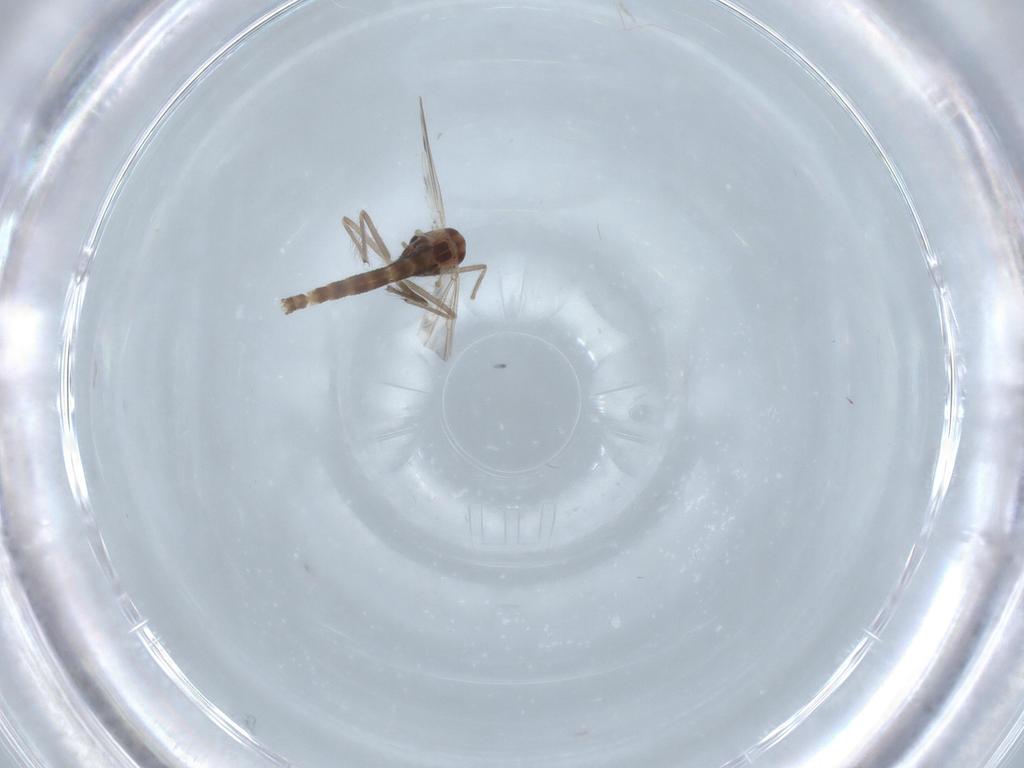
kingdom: Animalia
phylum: Arthropoda
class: Insecta
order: Diptera
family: Chironomidae
